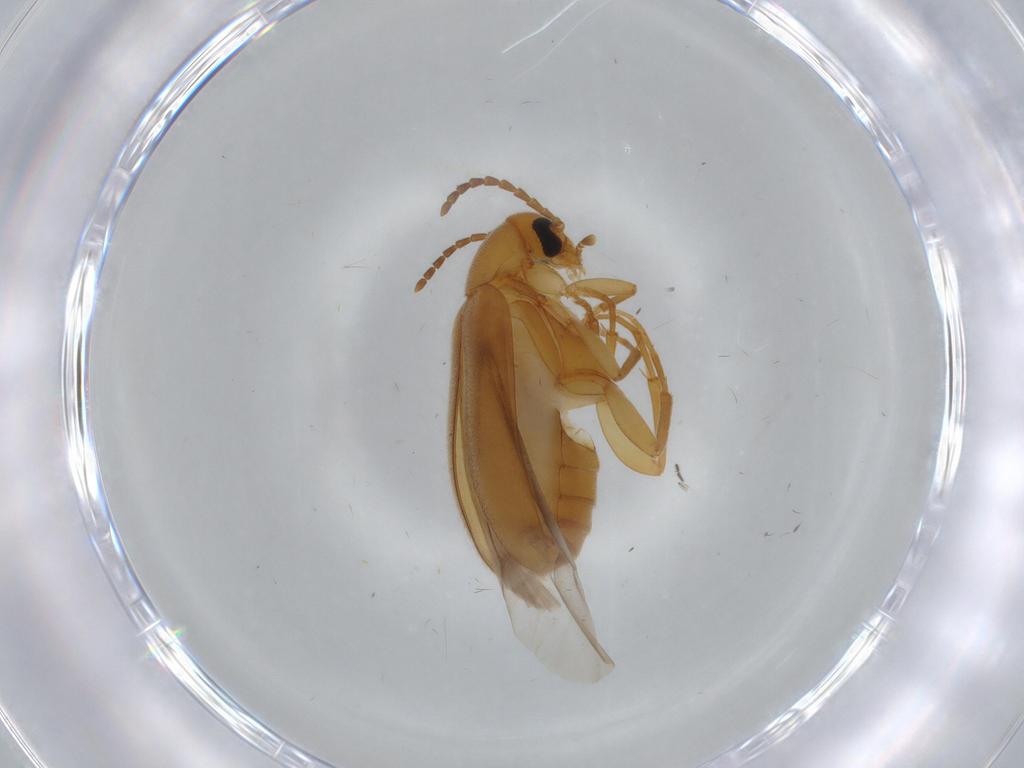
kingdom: Animalia
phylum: Arthropoda
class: Insecta
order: Coleoptera
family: Scraptiidae
